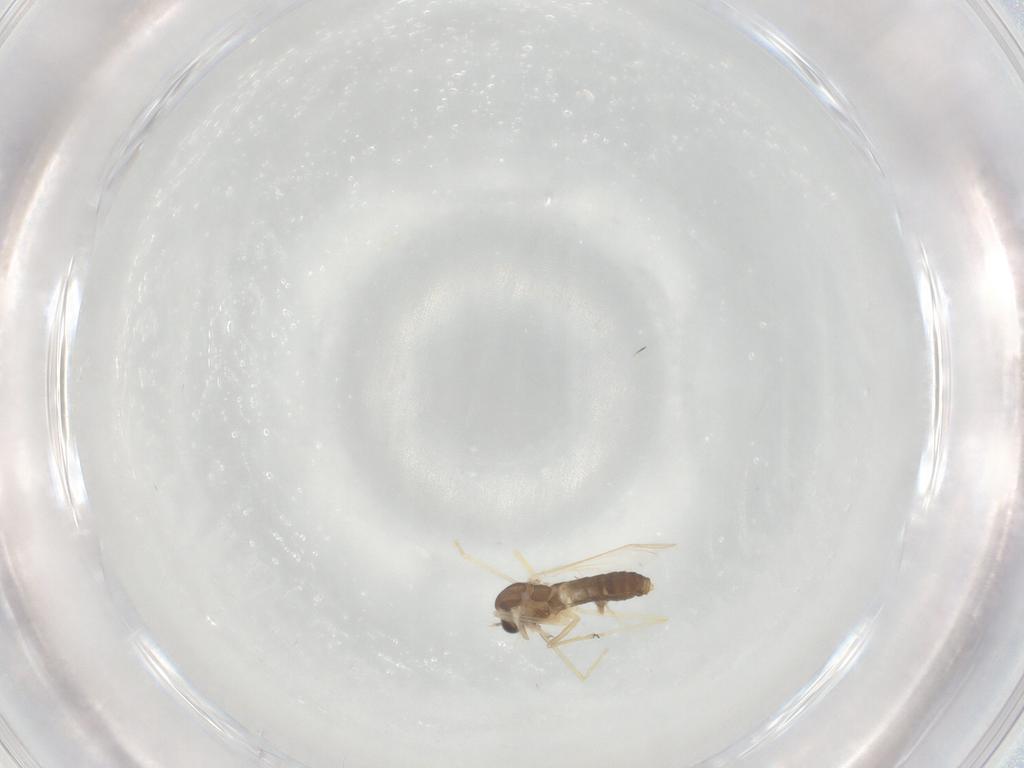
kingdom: Animalia
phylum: Arthropoda
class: Insecta
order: Diptera
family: Chironomidae
